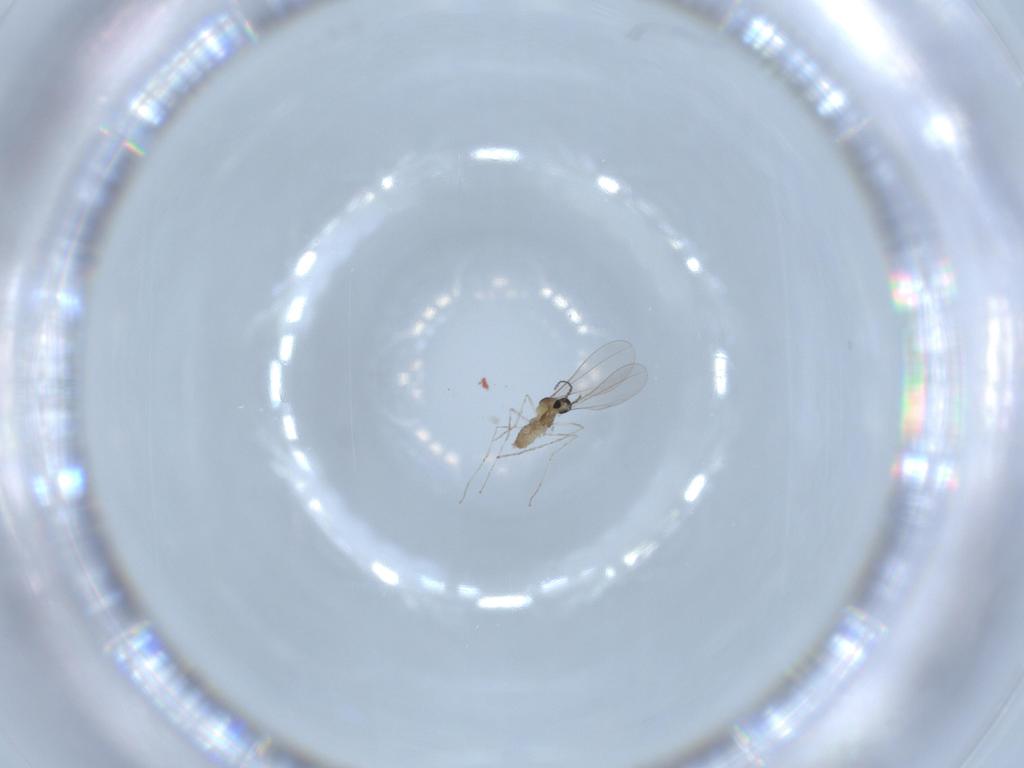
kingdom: Animalia
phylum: Arthropoda
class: Insecta
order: Diptera
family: Cecidomyiidae
